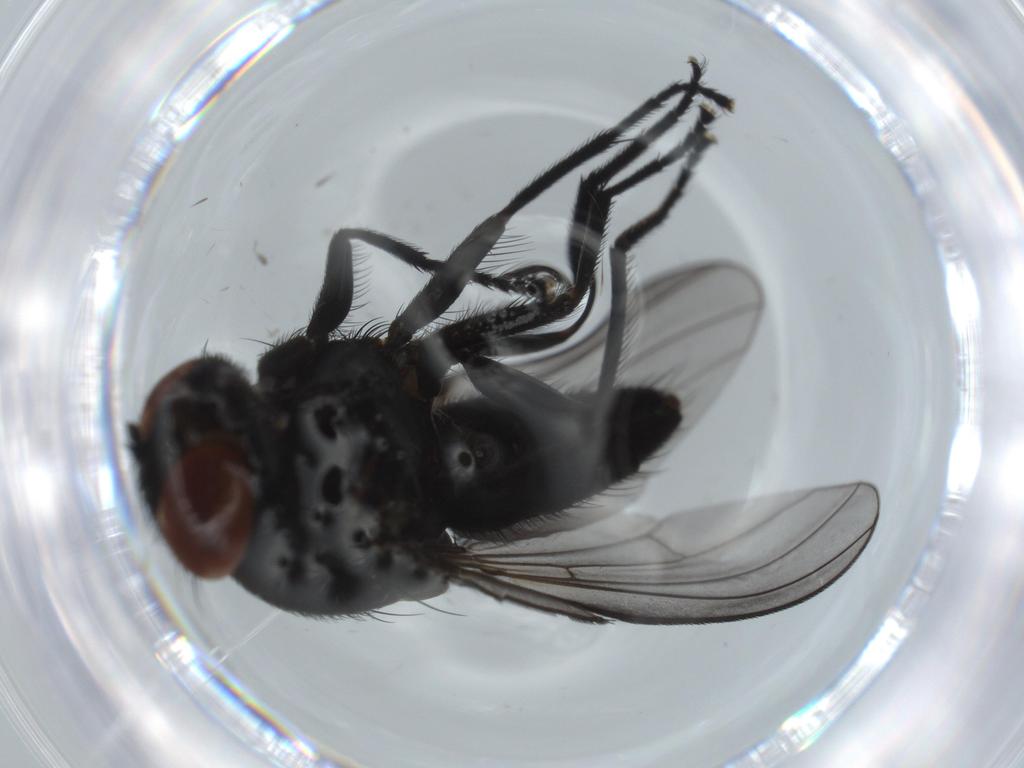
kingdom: Animalia
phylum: Arthropoda
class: Insecta
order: Diptera
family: Milichiidae
